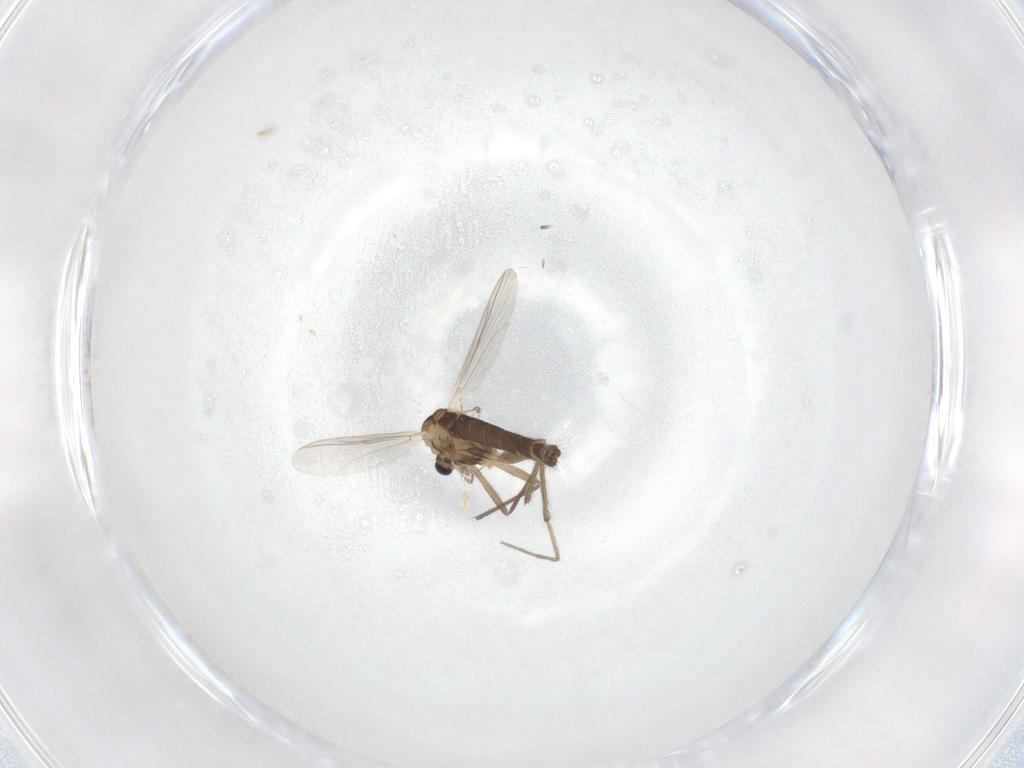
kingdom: Animalia
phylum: Arthropoda
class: Insecta
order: Diptera
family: Chironomidae
